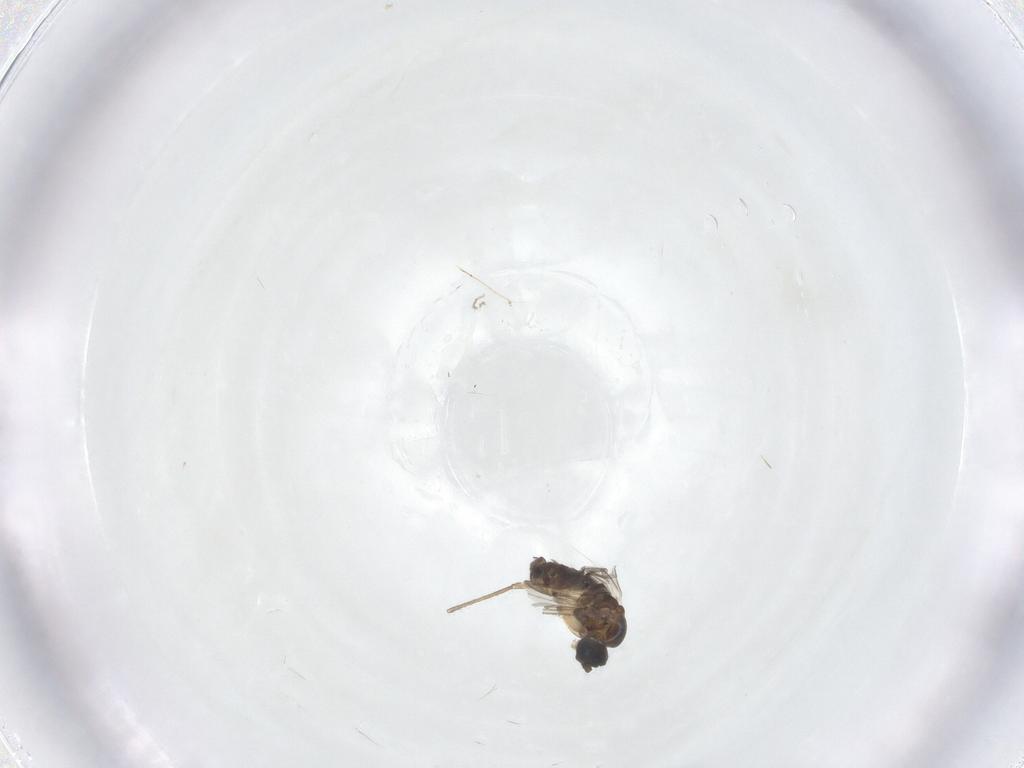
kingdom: Animalia
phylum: Arthropoda
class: Insecta
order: Diptera
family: Sciaridae
